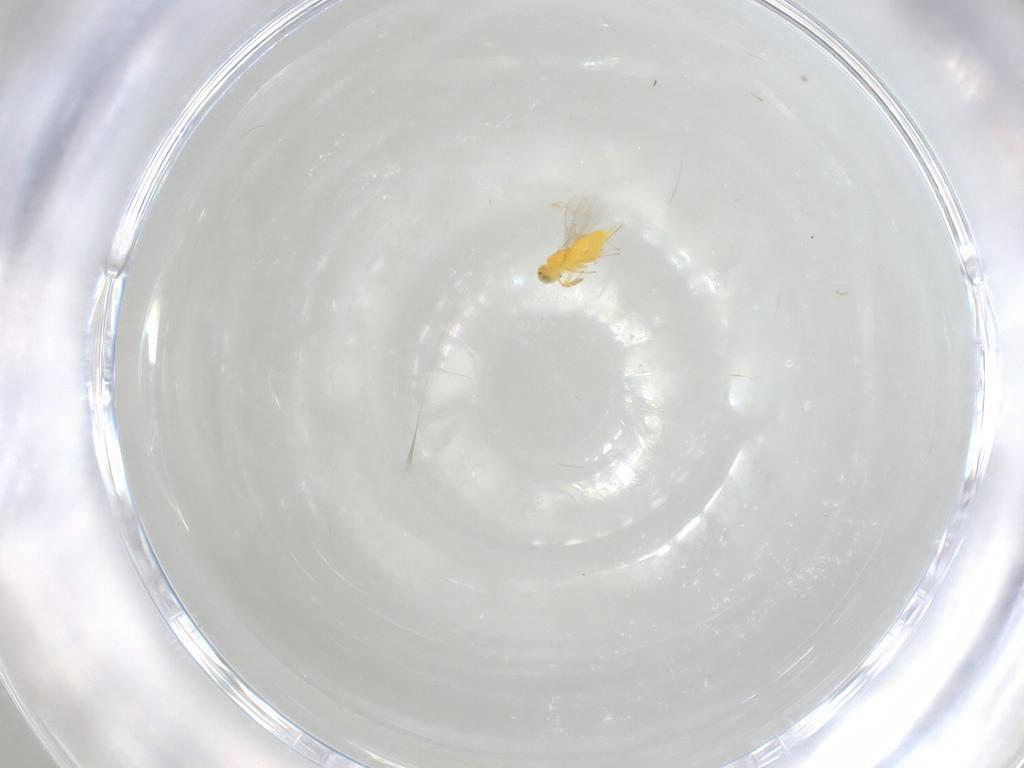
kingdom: Animalia
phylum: Arthropoda
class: Insecta
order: Hymenoptera
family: Aphelinidae
